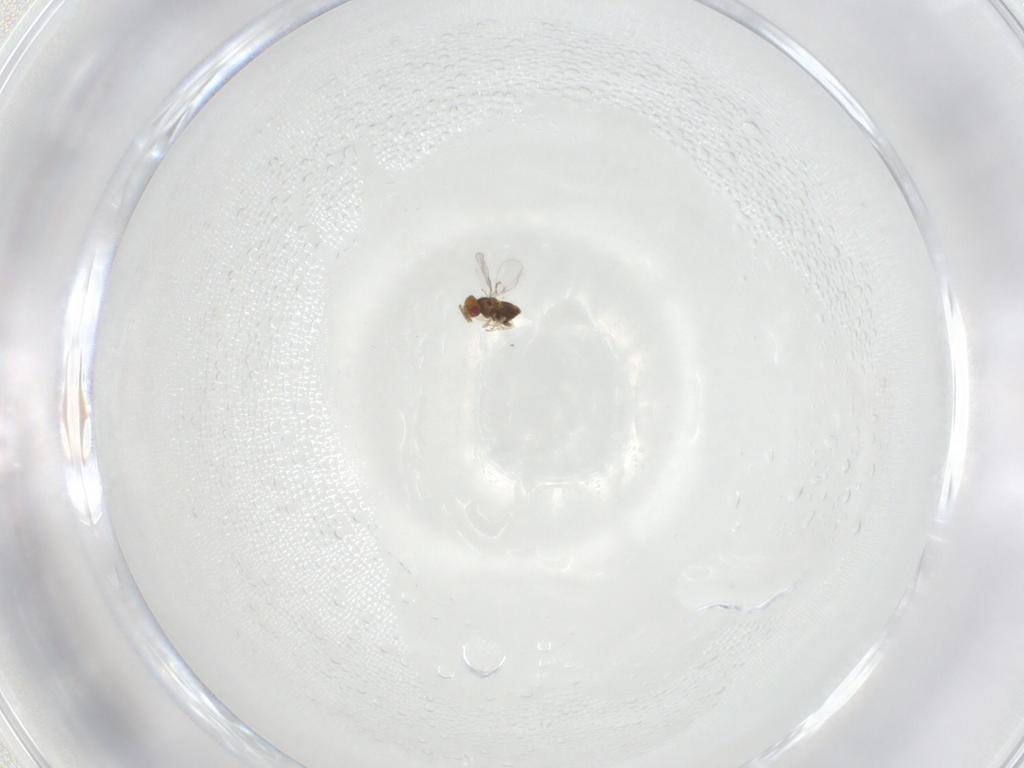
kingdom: Animalia
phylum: Arthropoda
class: Insecta
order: Hymenoptera
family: Trichogrammatidae
